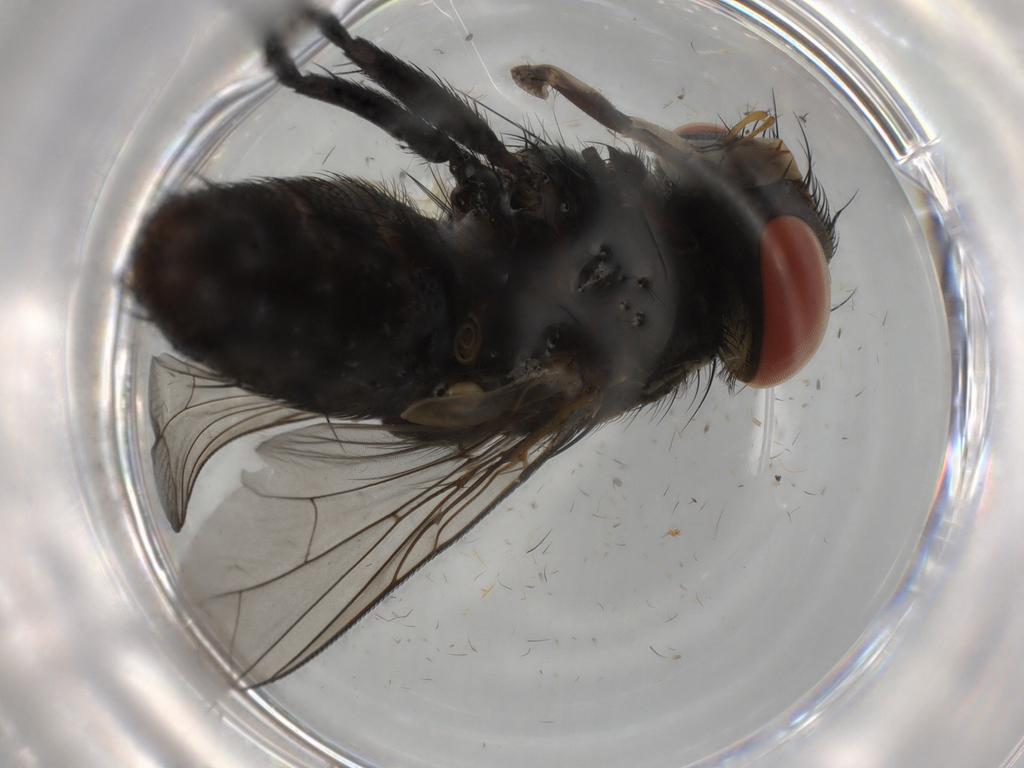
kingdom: Animalia
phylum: Arthropoda
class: Insecta
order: Diptera
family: Sarcophagidae
